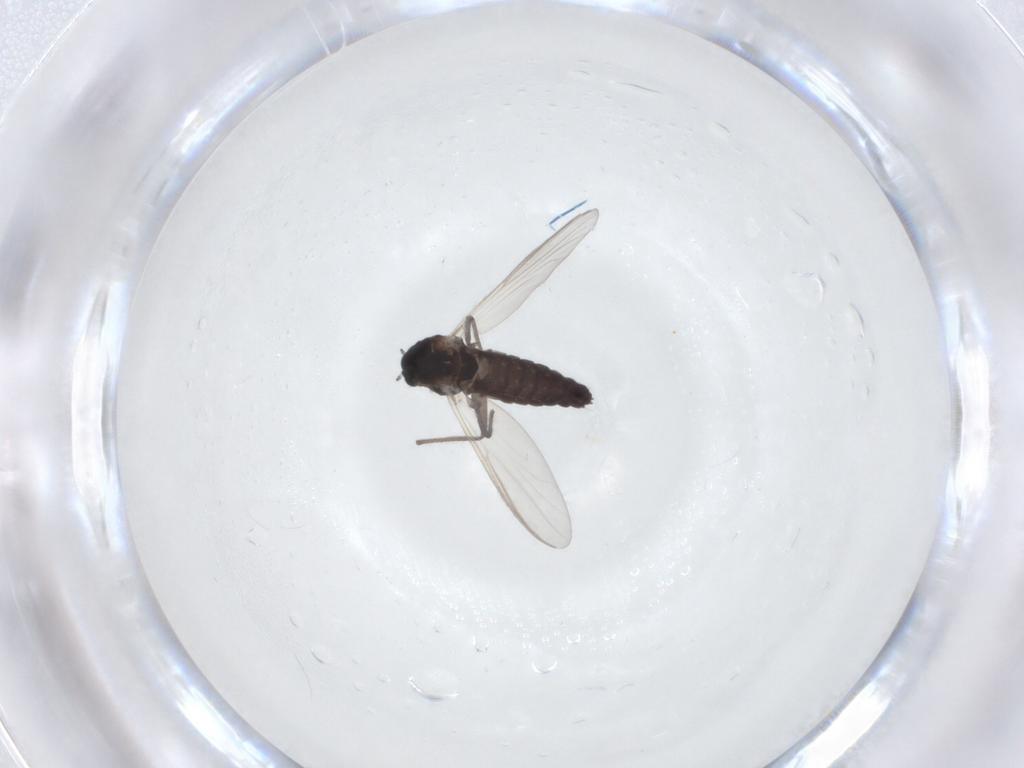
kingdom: Animalia
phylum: Arthropoda
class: Insecta
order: Diptera
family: Chironomidae
